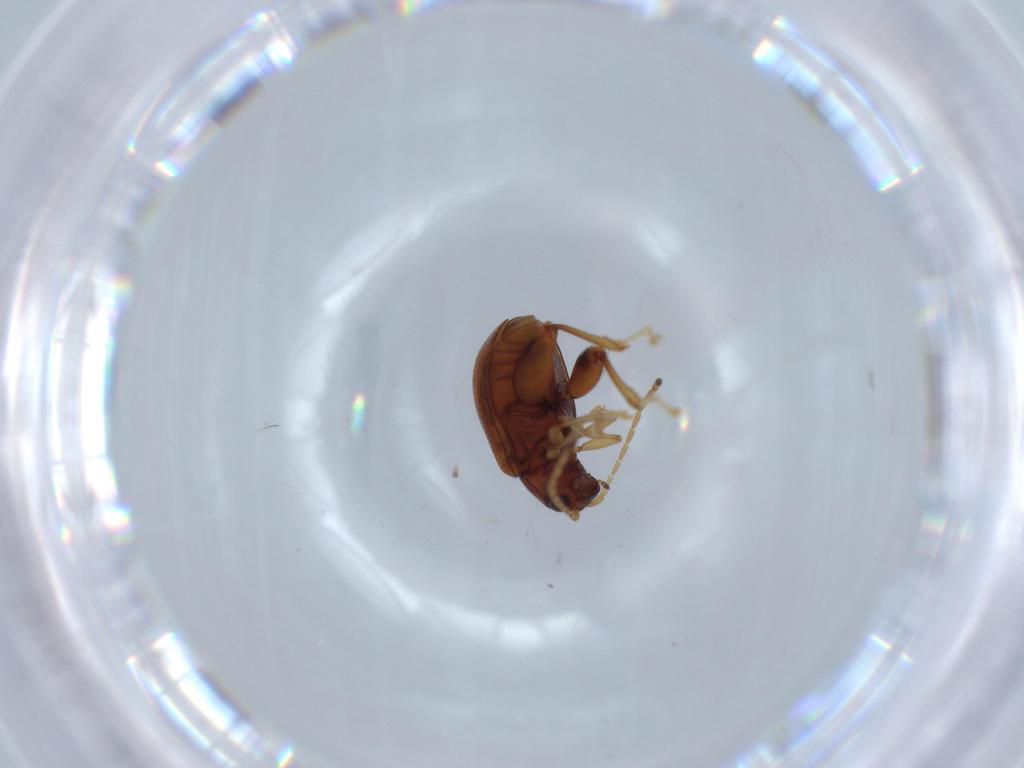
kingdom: Animalia
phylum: Arthropoda
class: Insecta
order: Coleoptera
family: Chrysomelidae
